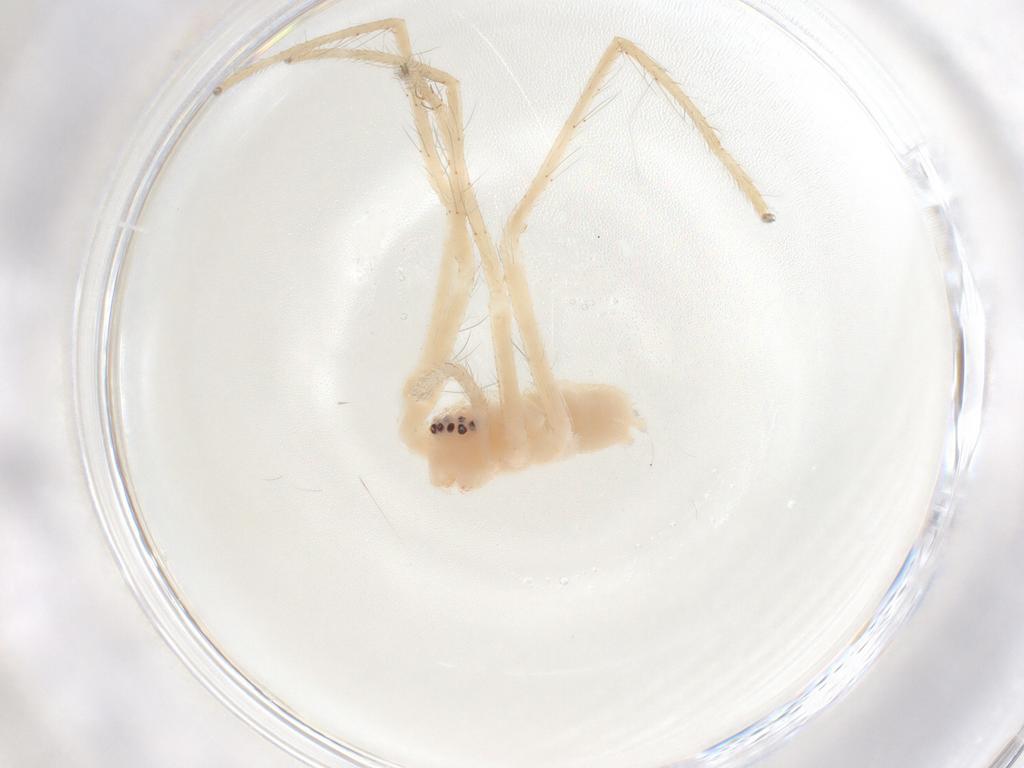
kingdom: Animalia
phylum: Arthropoda
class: Arachnida
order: Araneae
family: Sparassidae
